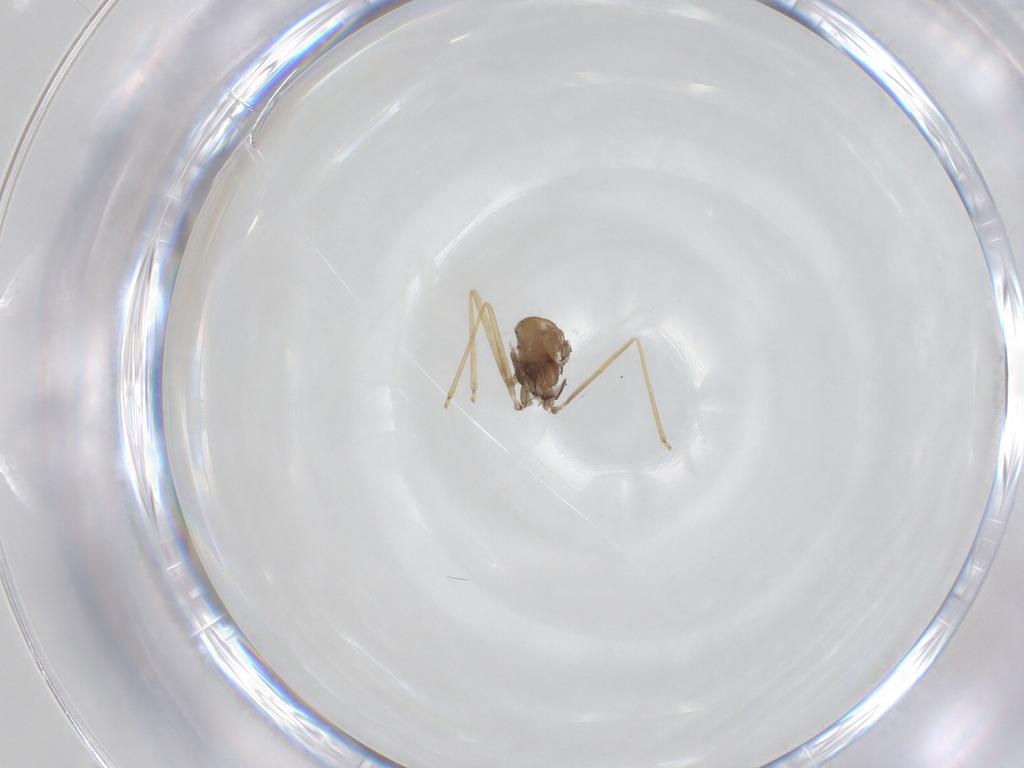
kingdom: Animalia
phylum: Arthropoda
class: Insecta
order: Diptera
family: Cecidomyiidae
